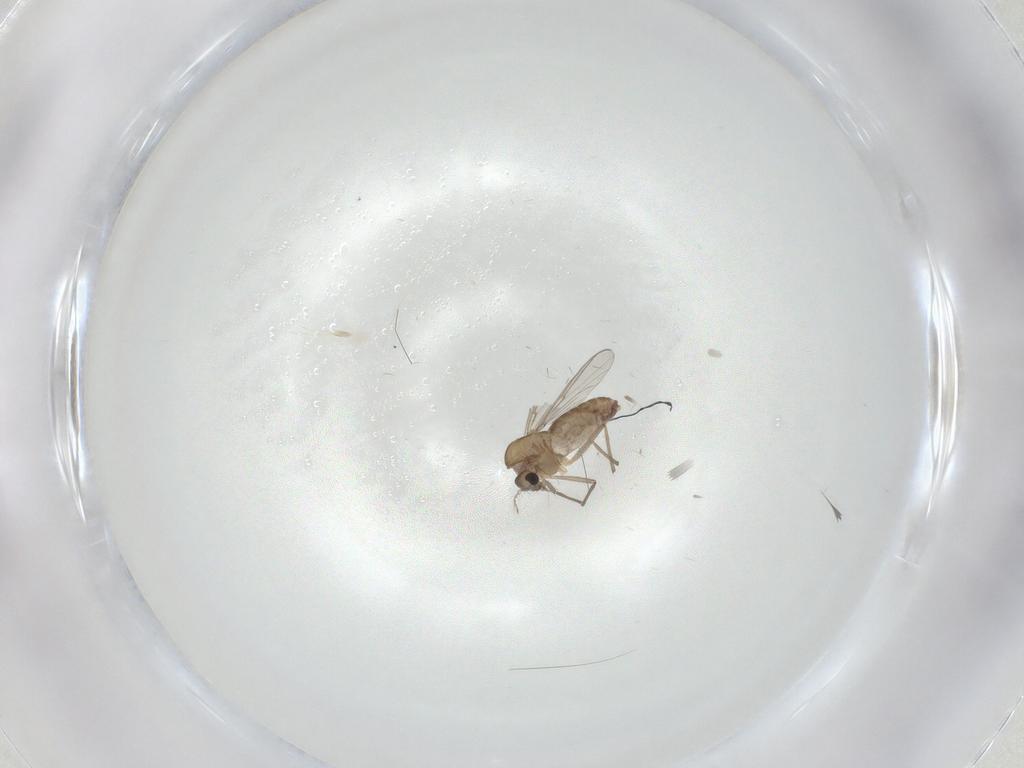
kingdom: Animalia
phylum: Arthropoda
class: Insecta
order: Diptera
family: Chironomidae
